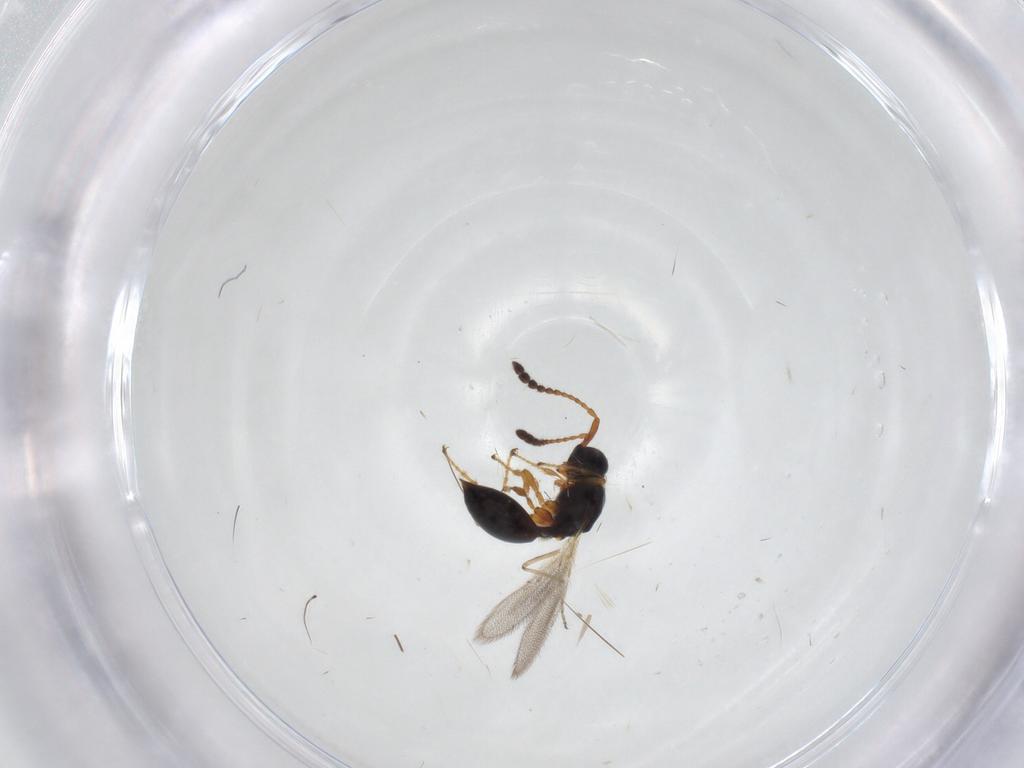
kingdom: Animalia
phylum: Arthropoda
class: Insecta
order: Hymenoptera
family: Diapriidae
